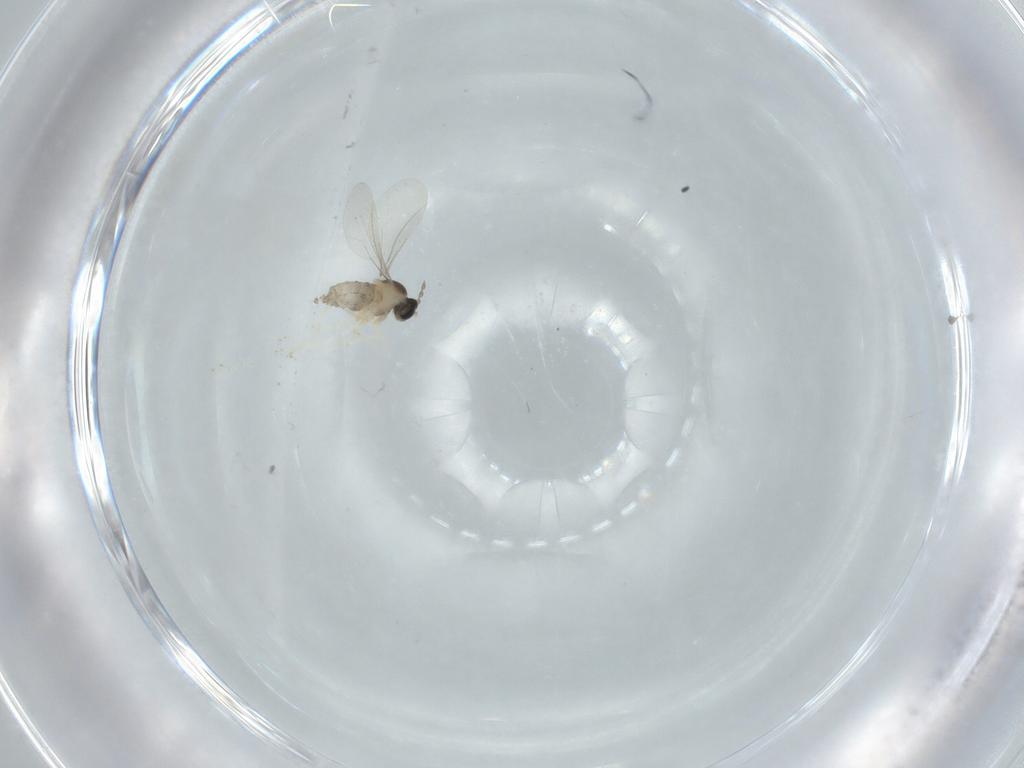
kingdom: Animalia
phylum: Arthropoda
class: Insecta
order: Diptera
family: Cecidomyiidae
